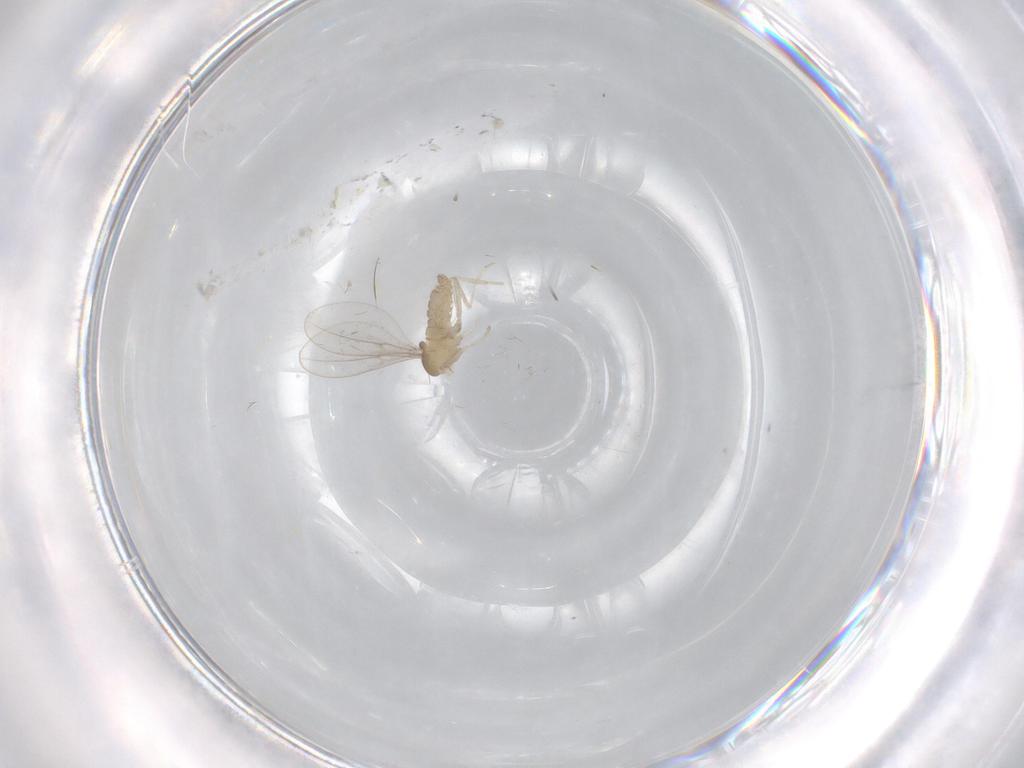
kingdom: Animalia
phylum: Arthropoda
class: Insecta
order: Diptera
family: Cecidomyiidae
